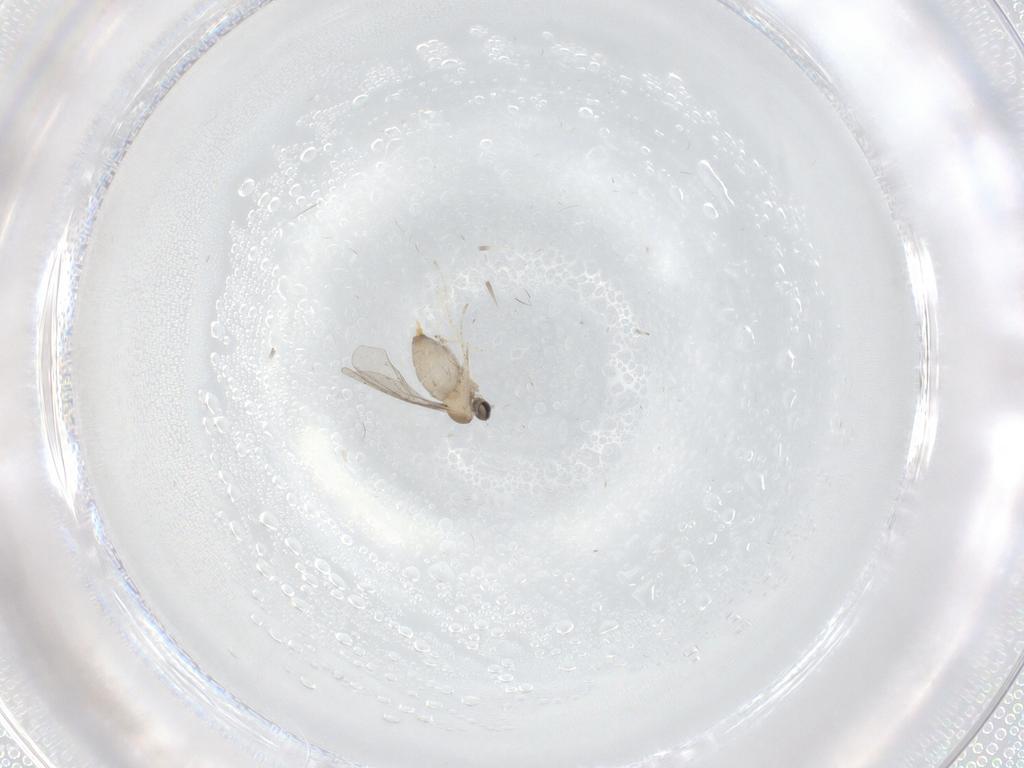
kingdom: Animalia
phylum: Arthropoda
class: Insecta
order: Diptera
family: Cecidomyiidae
